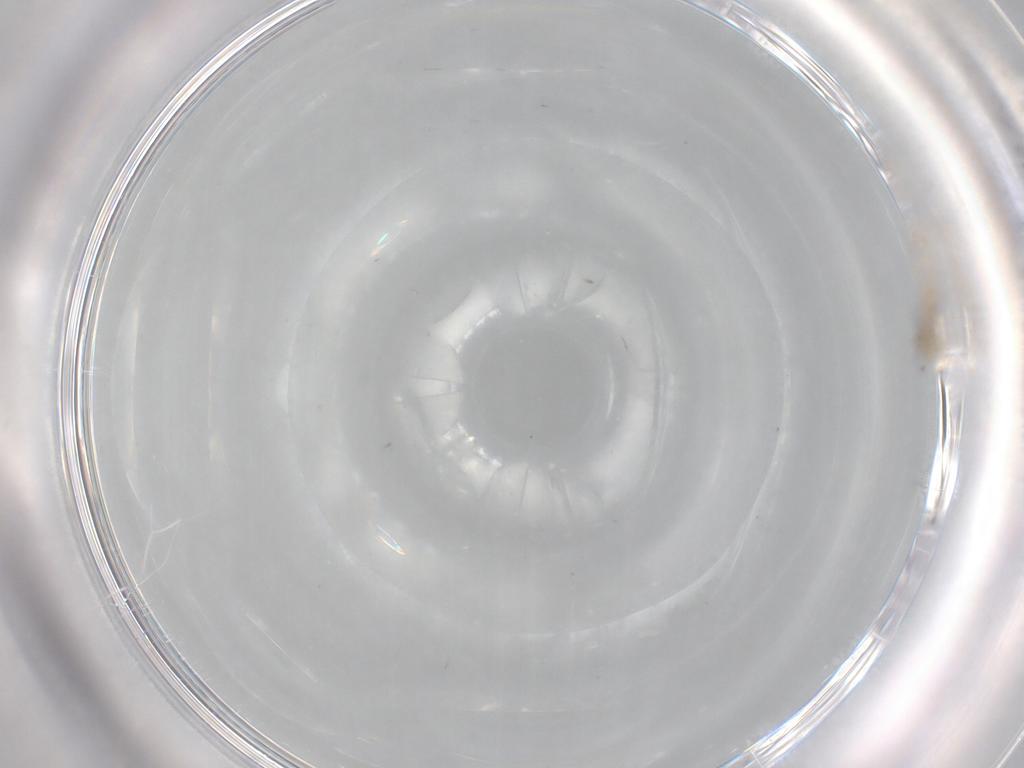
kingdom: Animalia
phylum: Arthropoda
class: Insecta
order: Diptera
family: Cecidomyiidae
